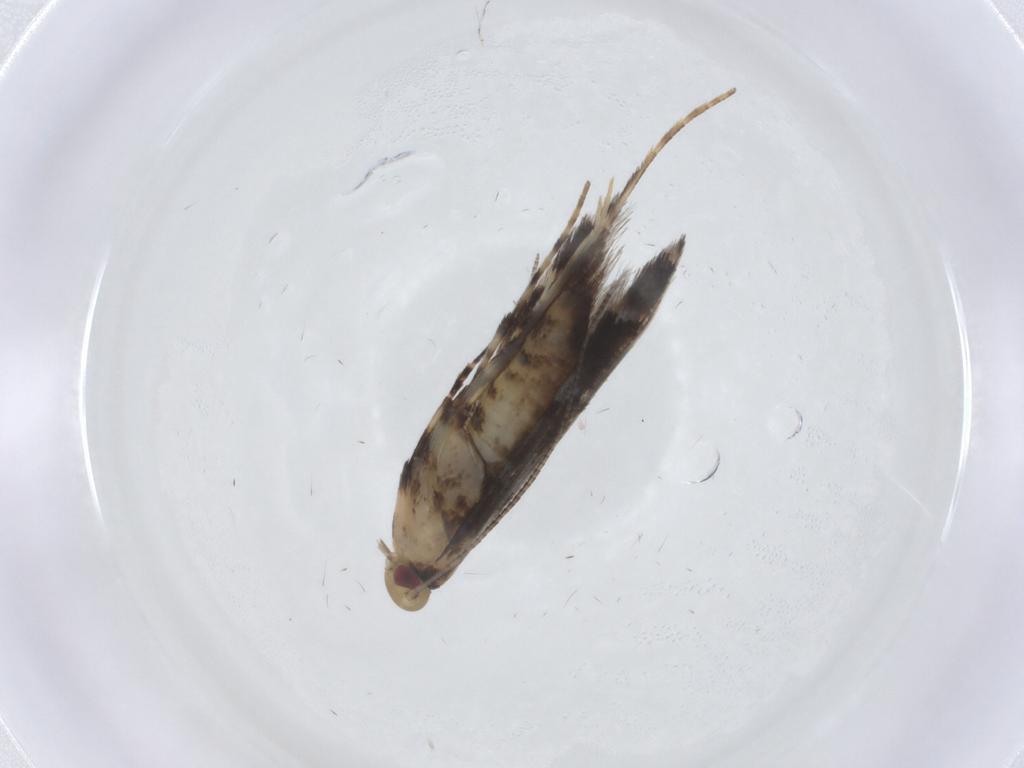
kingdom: Animalia
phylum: Arthropoda
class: Insecta
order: Lepidoptera
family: Gracillariidae
